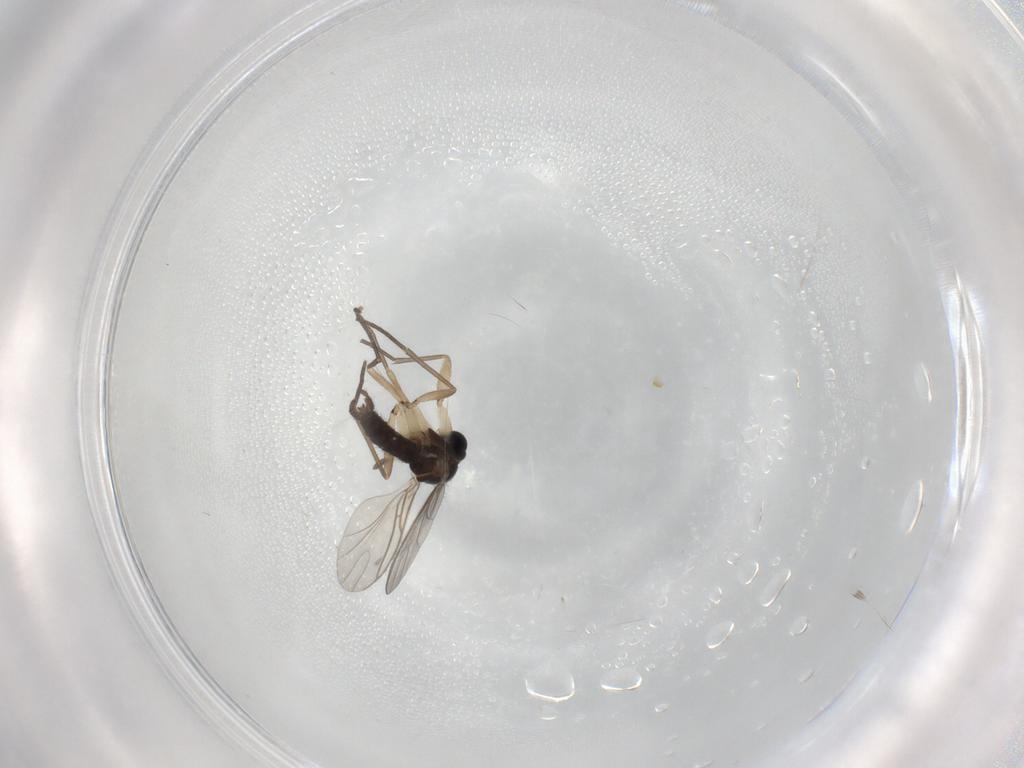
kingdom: Animalia
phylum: Arthropoda
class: Insecta
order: Diptera
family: Sciaridae
